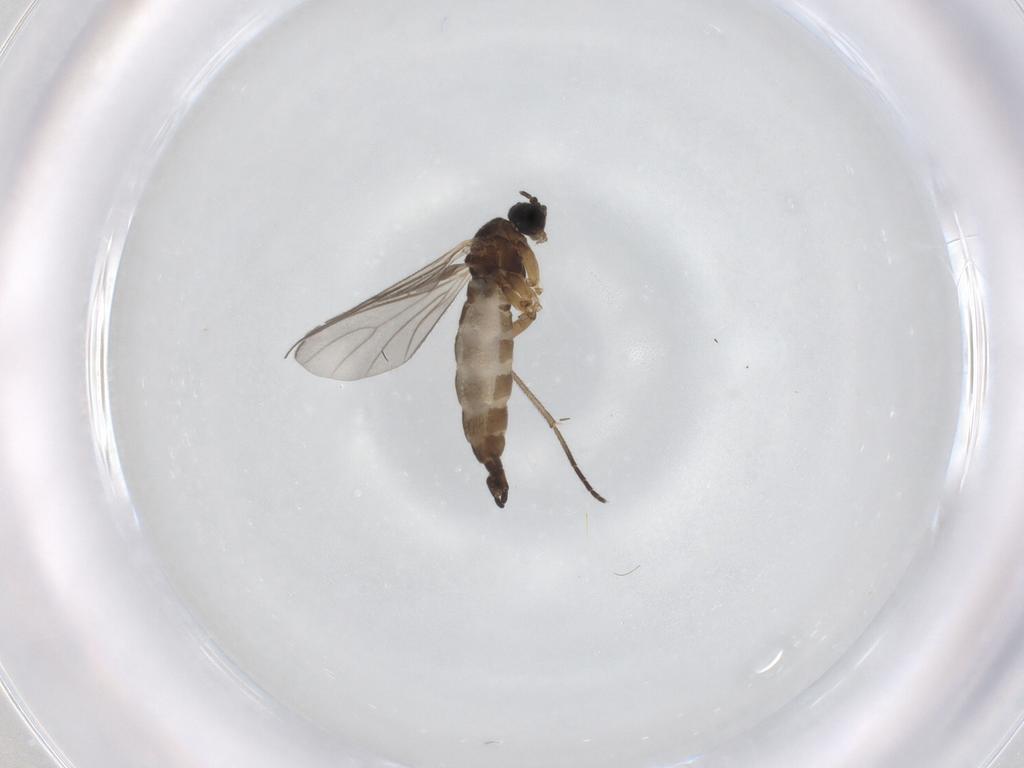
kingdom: Animalia
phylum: Arthropoda
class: Insecta
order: Diptera
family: Sciaridae
